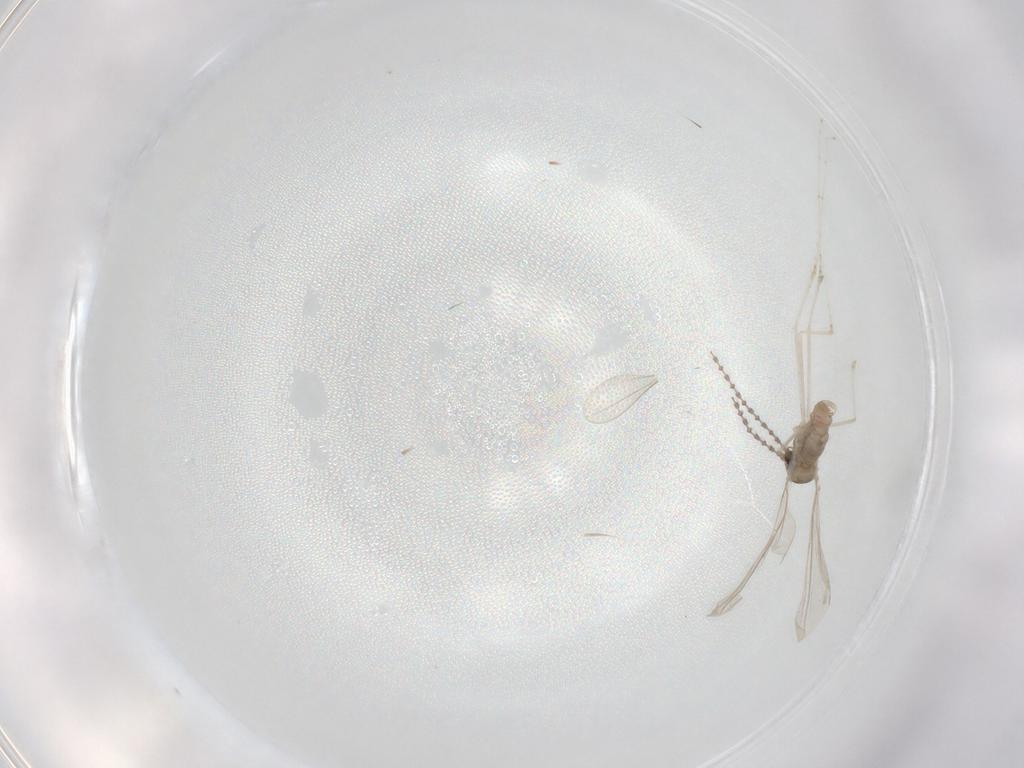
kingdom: Animalia
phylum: Arthropoda
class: Insecta
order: Diptera
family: Cecidomyiidae
